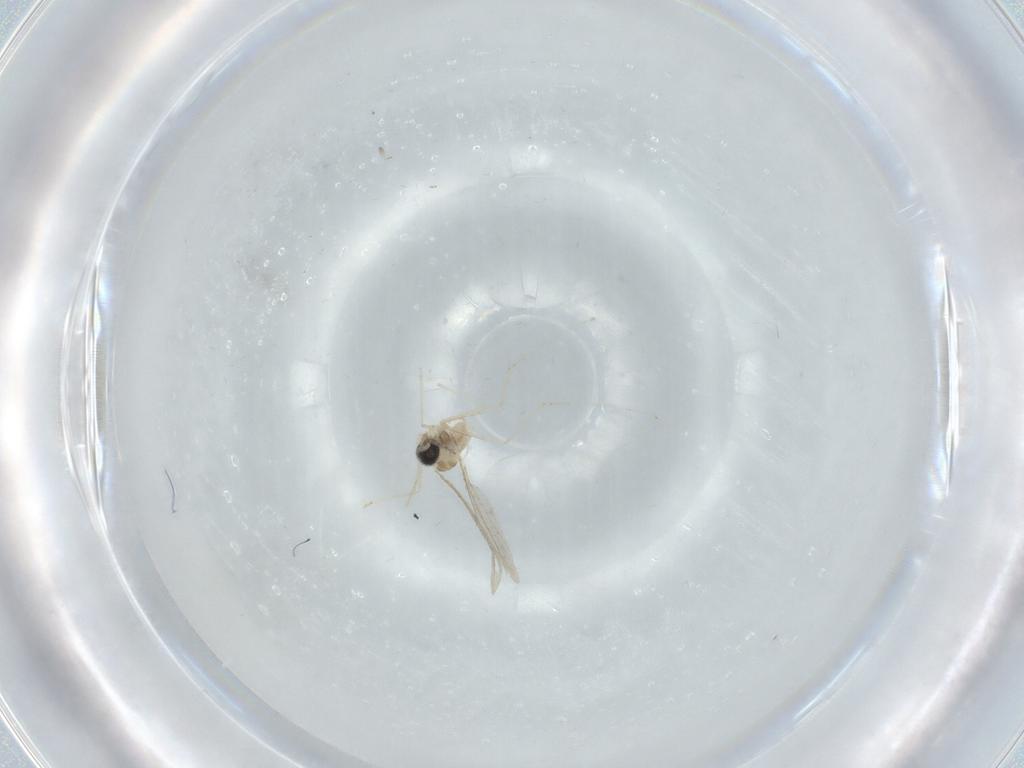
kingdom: Animalia
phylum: Arthropoda
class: Insecta
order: Diptera
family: Cecidomyiidae
